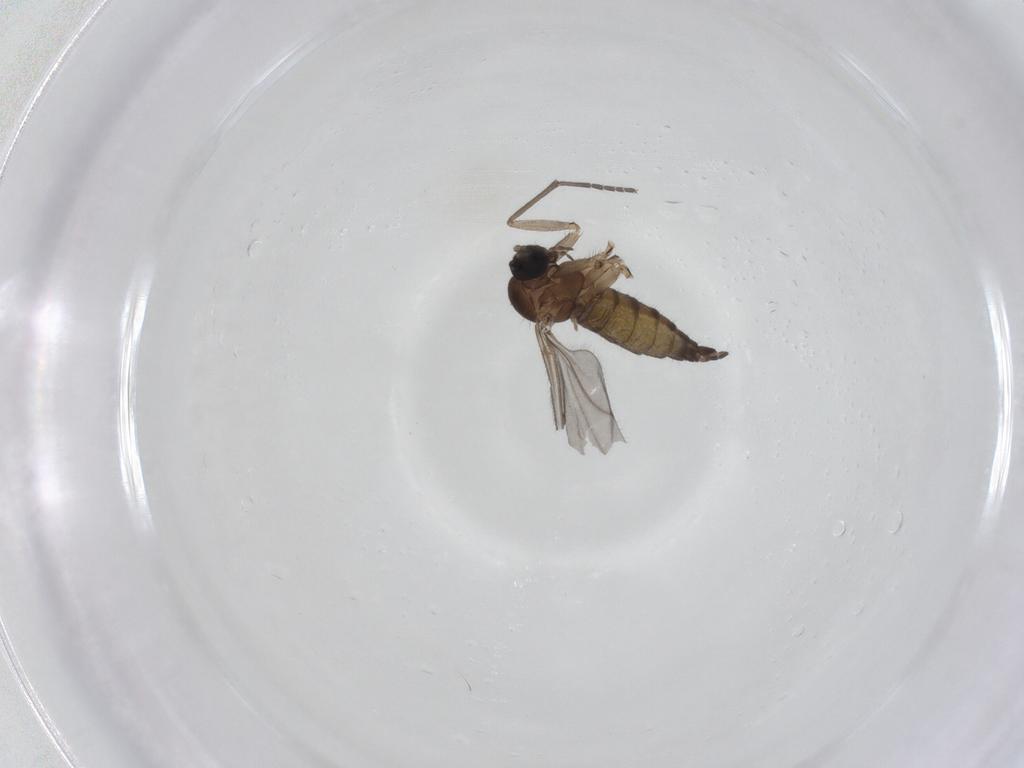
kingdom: Animalia
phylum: Arthropoda
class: Insecta
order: Diptera
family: Sciaridae
